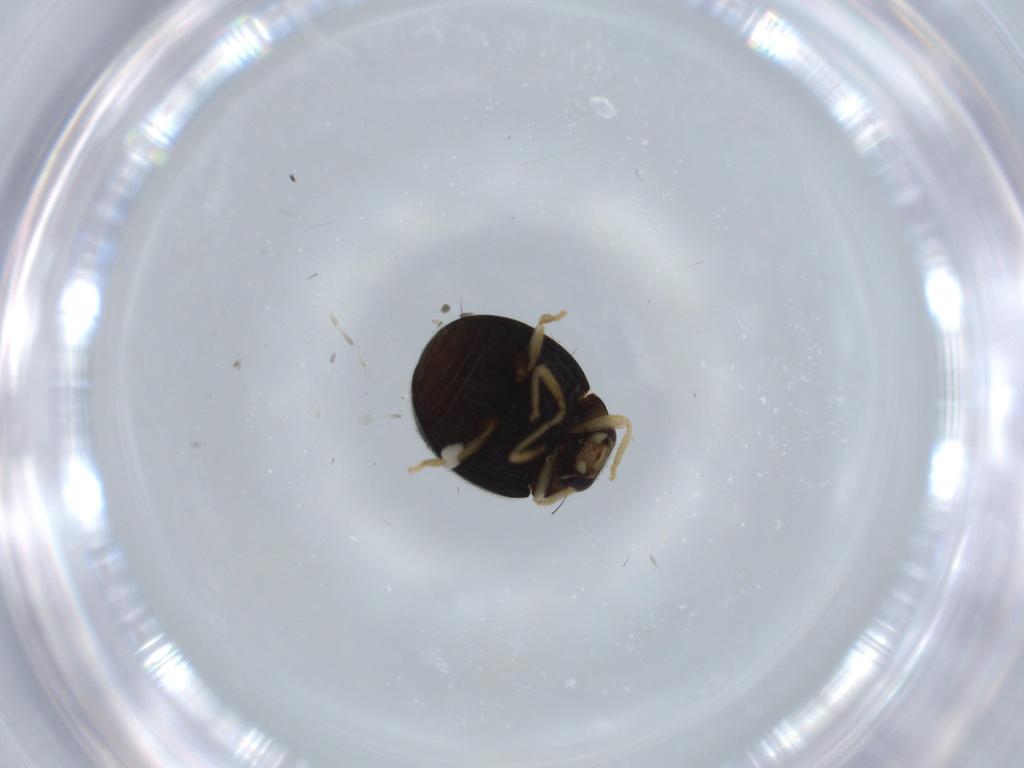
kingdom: Animalia
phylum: Arthropoda
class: Insecta
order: Coleoptera
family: Coccinellidae
